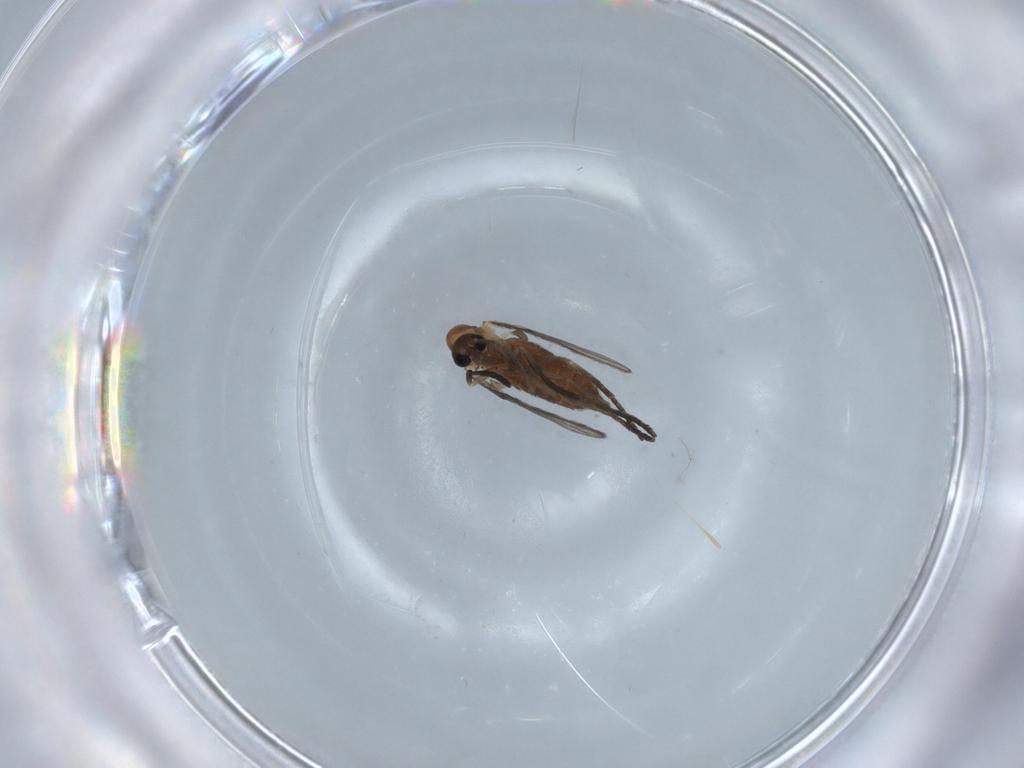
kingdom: Animalia
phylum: Arthropoda
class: Insecta
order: Diptera
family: Psychodidae
